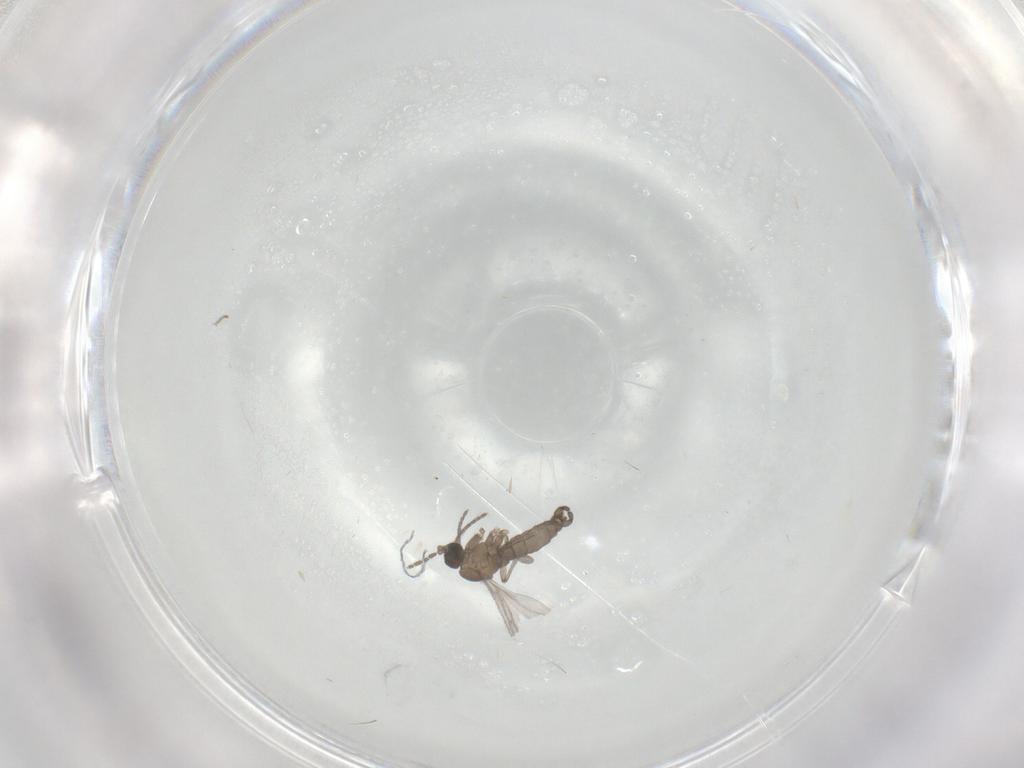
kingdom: Animalia
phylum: Arthropoda
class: Insecta
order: Diptera
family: Sciaridae
